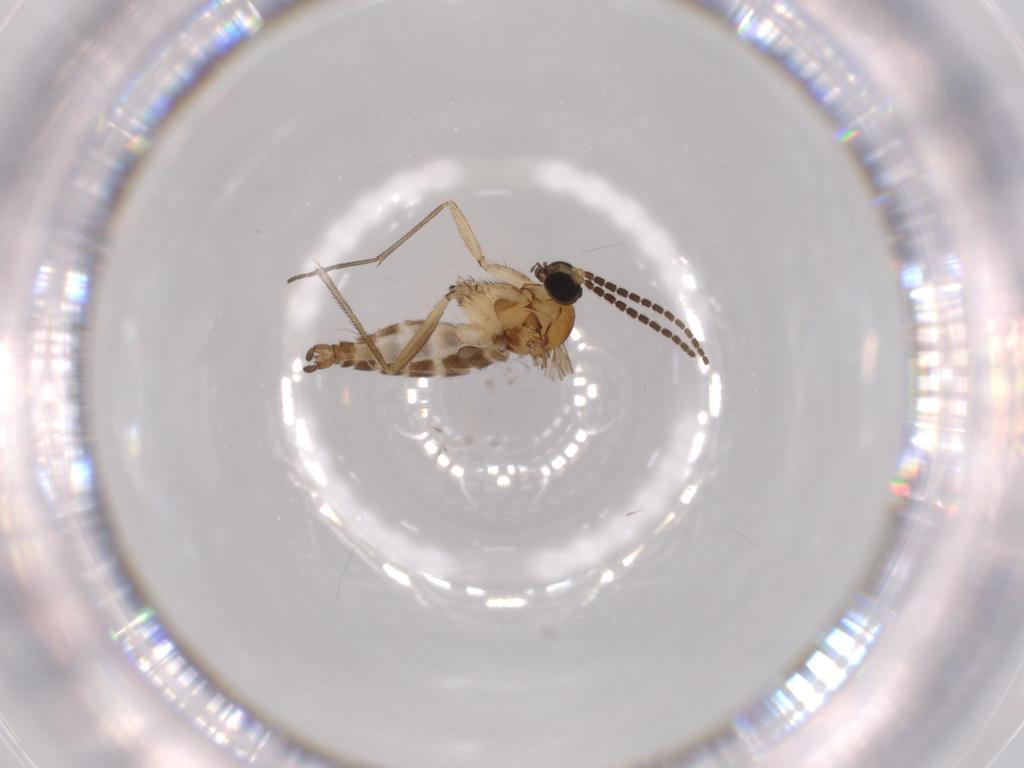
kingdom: Animalia
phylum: Arthropoda
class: Insecta
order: Diptera
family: Sciaridae
